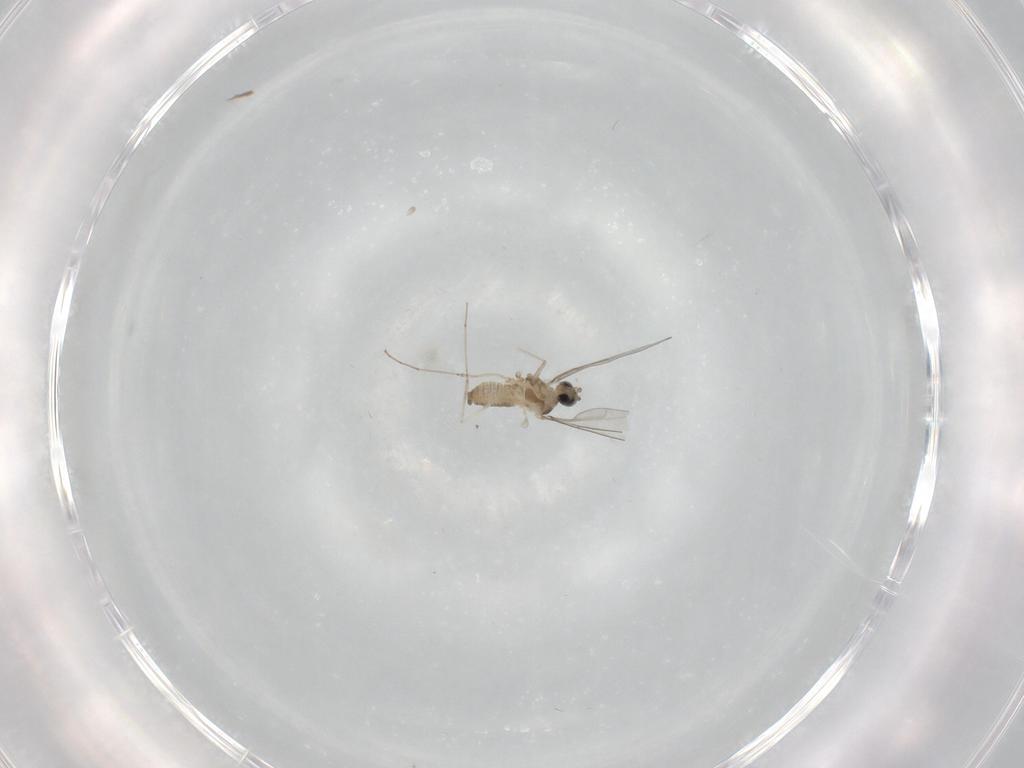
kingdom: Animalia
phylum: Arthropoda
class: Insecta
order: Diptera
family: Cecidomyiidae
